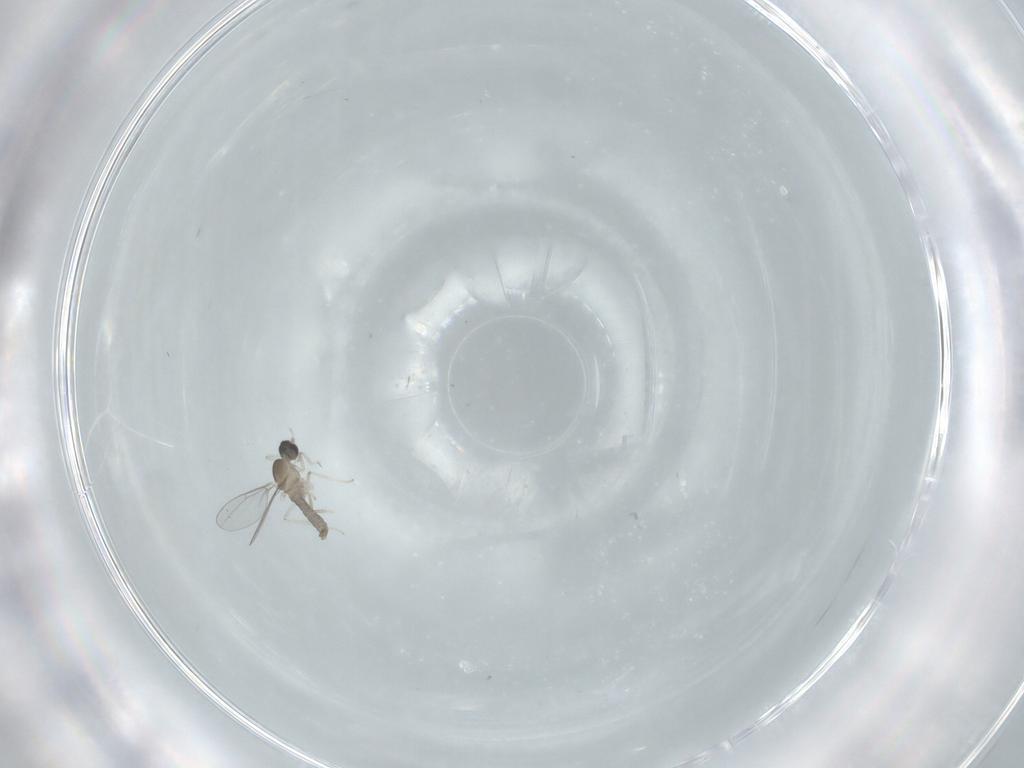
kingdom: Animalia
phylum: Arthropoda
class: Insecta
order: Diptera
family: Cecidomyiidae
